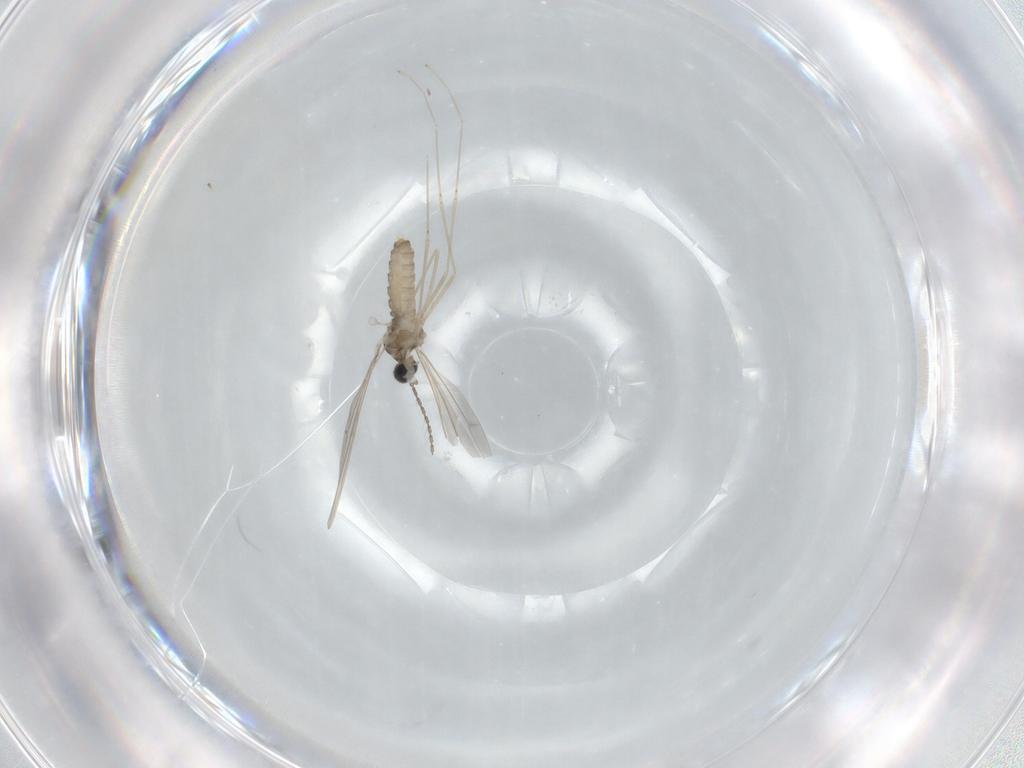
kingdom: Animalia
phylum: Arthropoda
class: Insecta
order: Diptera
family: Cecidomyiidae
